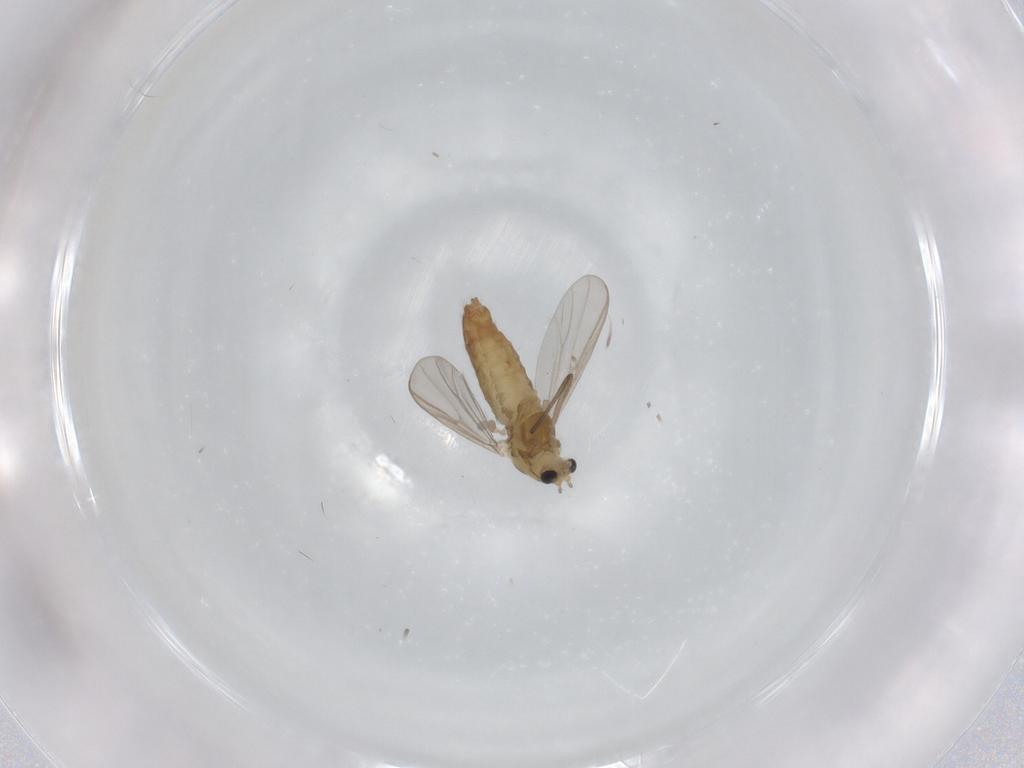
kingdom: Animalia
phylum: Arthropoda
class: Insecta
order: Diptera
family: Chironomidae
